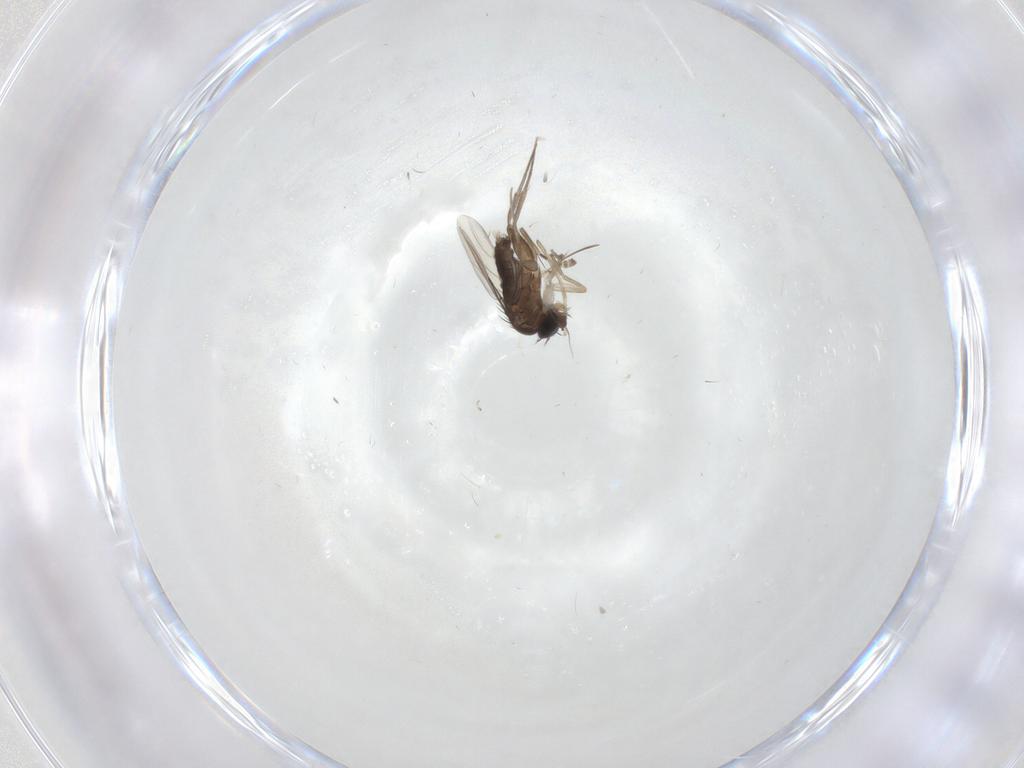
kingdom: Animalia
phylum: Arthropoda
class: Insecta
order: Diptera
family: Phoridae
